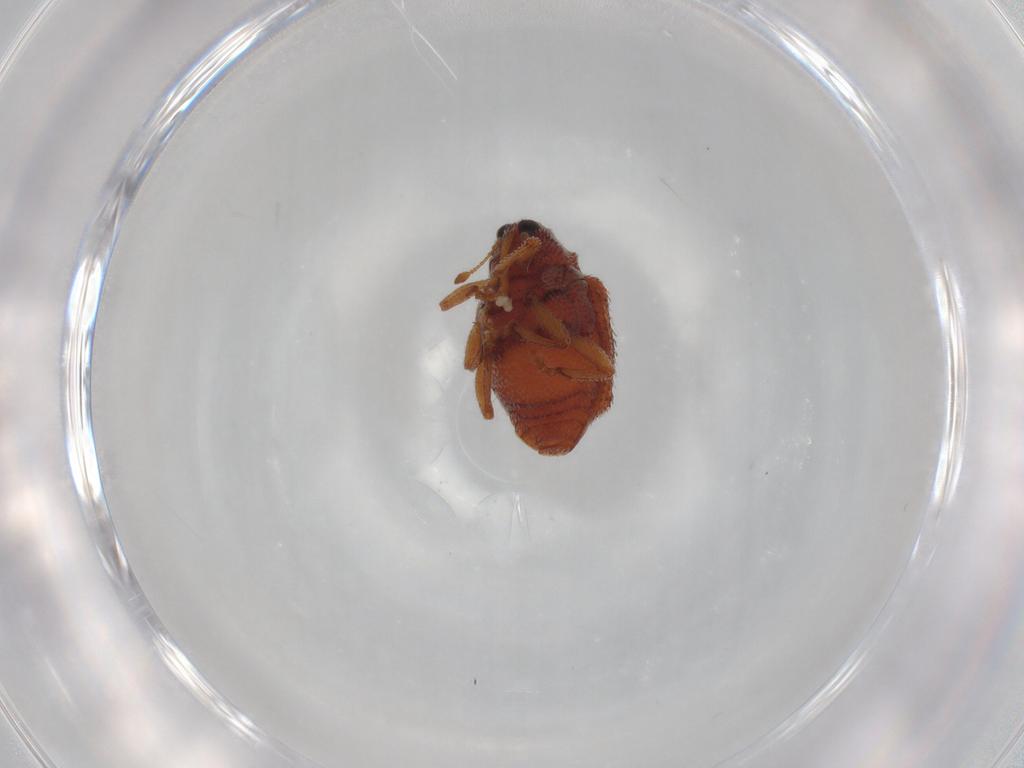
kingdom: Animalia
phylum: Arthropoda
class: Insecta
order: Coleoptera
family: Curculionidae
